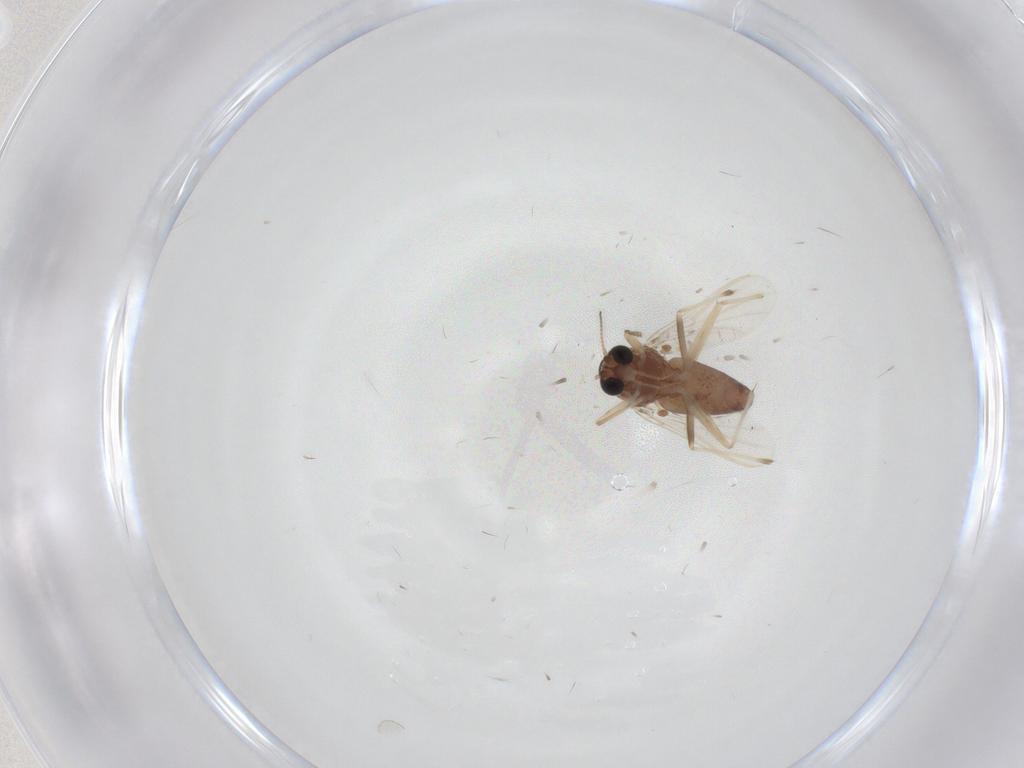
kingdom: Animalia
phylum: Arthropoda
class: Insecta
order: Diptera
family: Chironomidae
